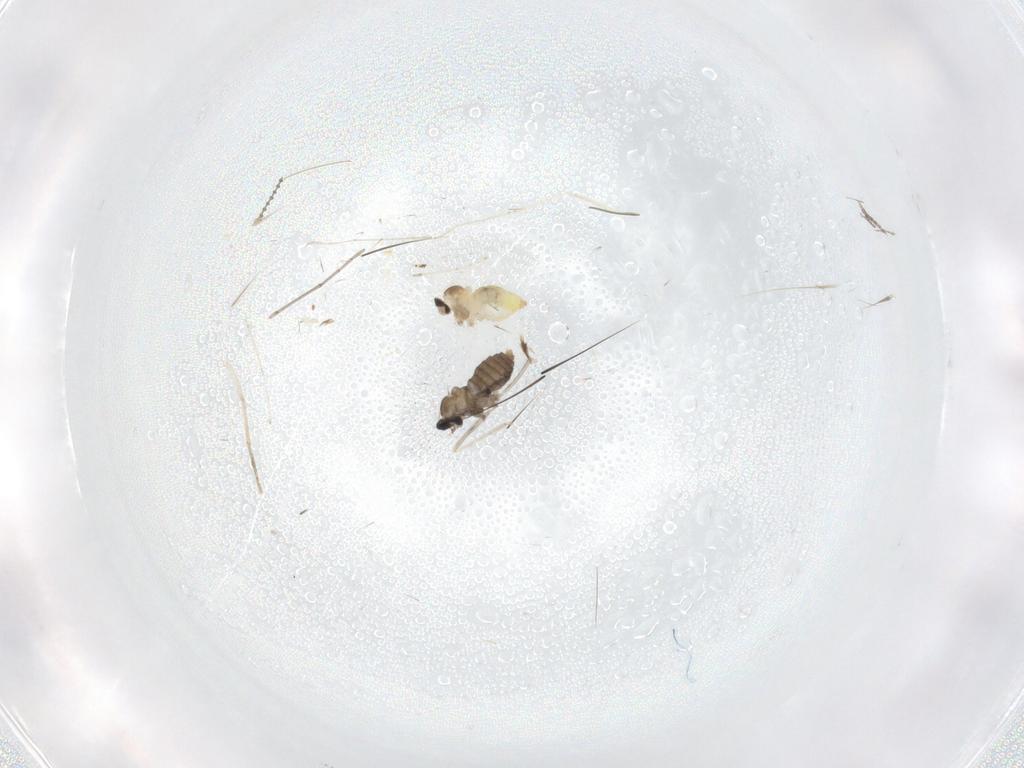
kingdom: Animalia
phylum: Arthropoda
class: Insecta
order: Diptera
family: Cecidomyiidae
